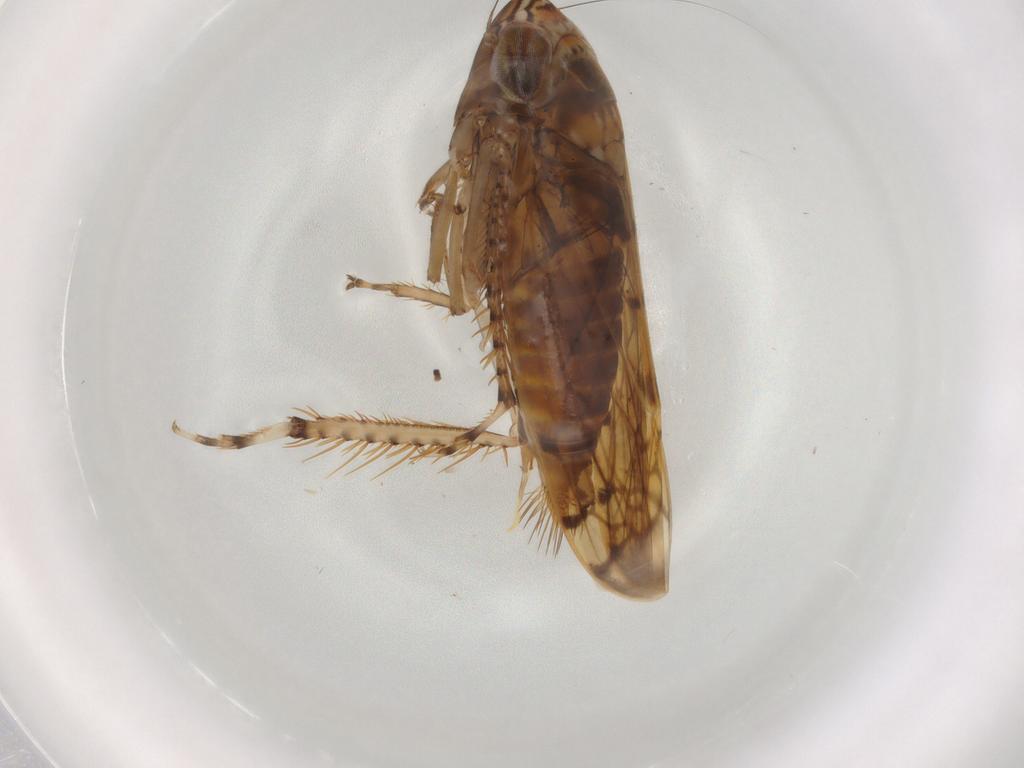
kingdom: Animalia
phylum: Arthropoda
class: Insecta
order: Hemiptera
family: Cicadellidae
